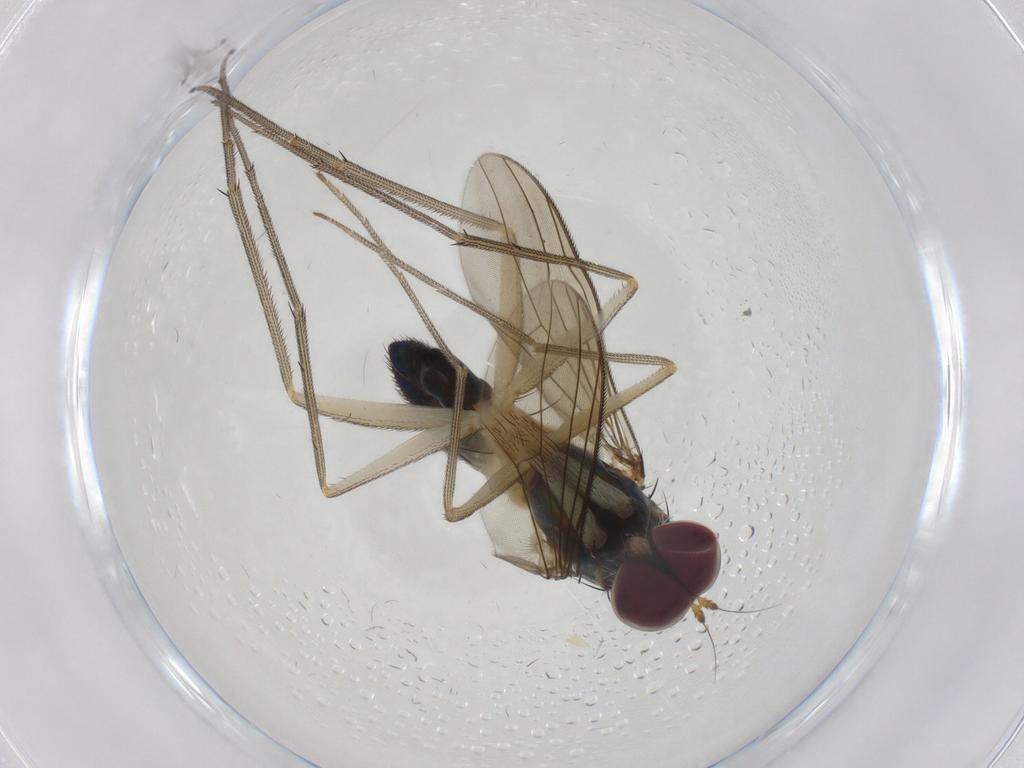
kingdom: Animalia
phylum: Arthropoda
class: Insecta
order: Diptera
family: Dolichopodidae
